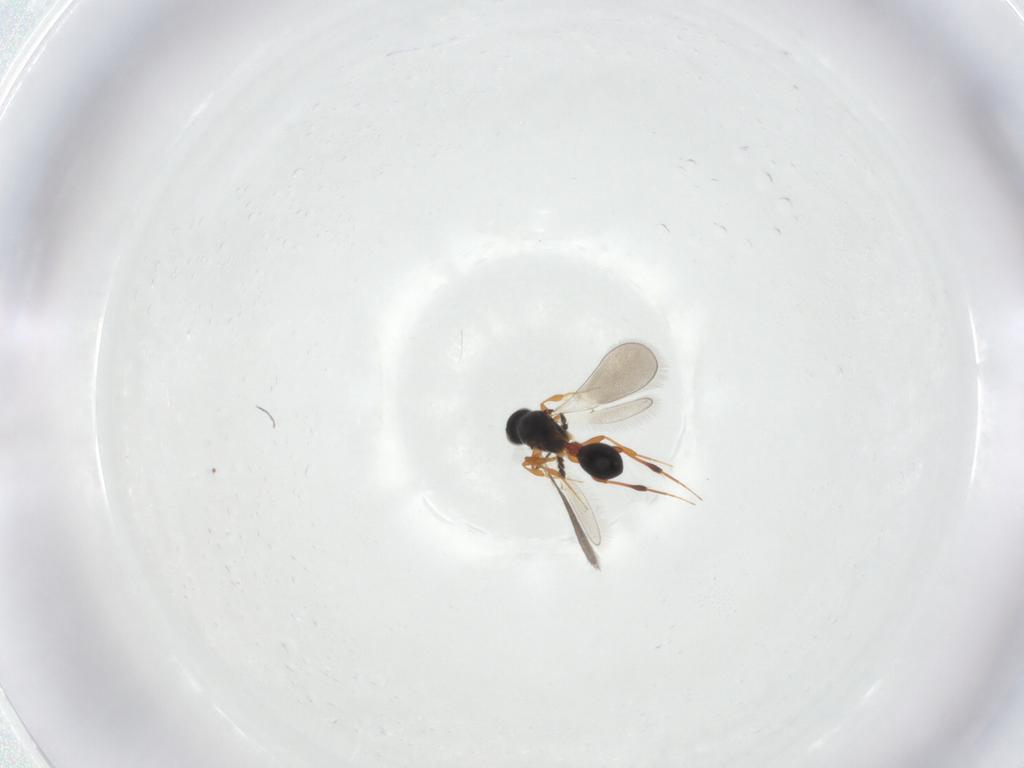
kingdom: Animalia
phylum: Arthropoda
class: Insecta
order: Hymenoptera
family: Platygastridae
